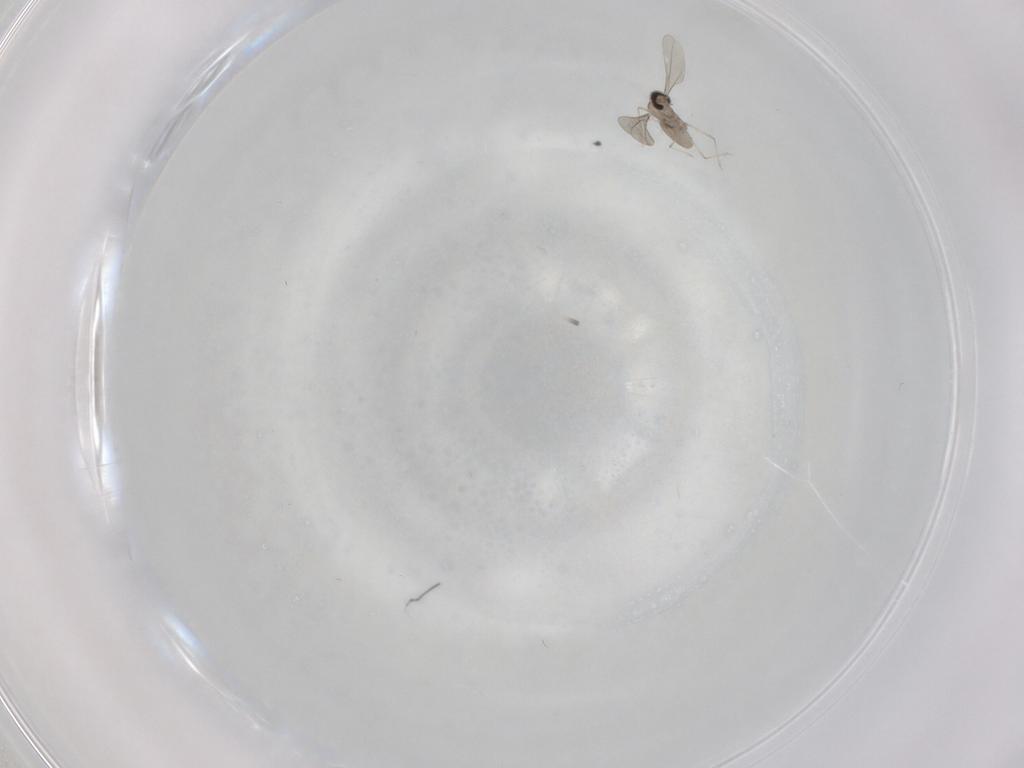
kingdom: Animalia
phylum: Arthropoda
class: Insecta
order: Diptera
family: Cecidomyiidae
